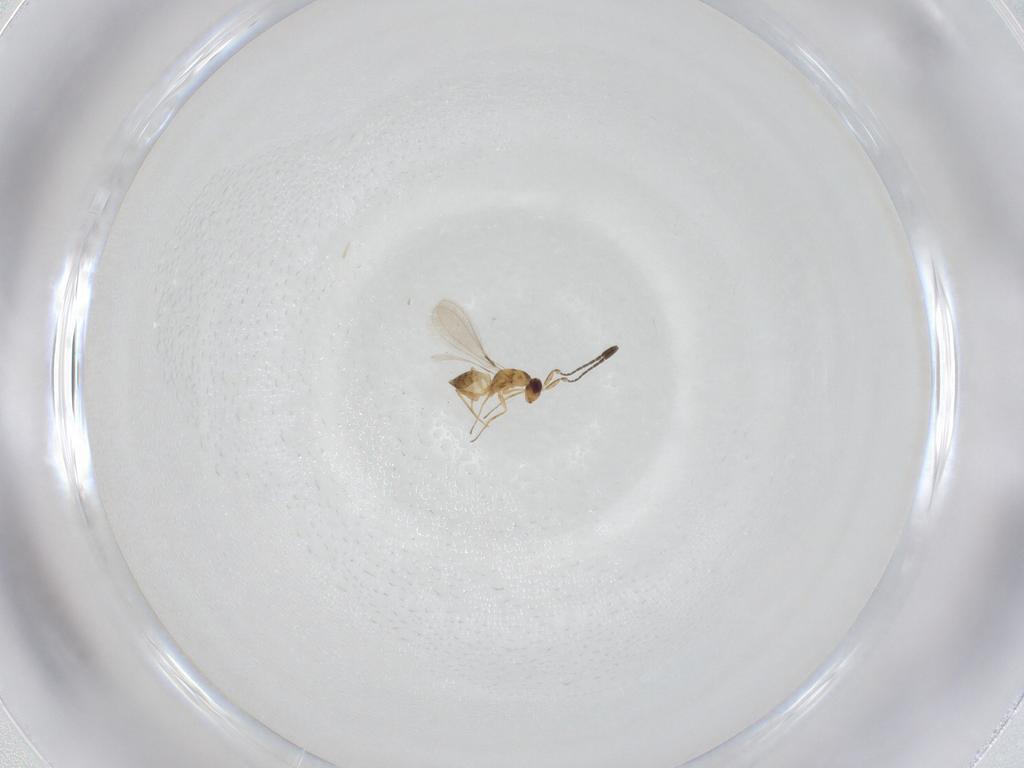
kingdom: Animalia
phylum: Arthropoda
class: Insecta
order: Hymenoptera
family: Mymaridae
